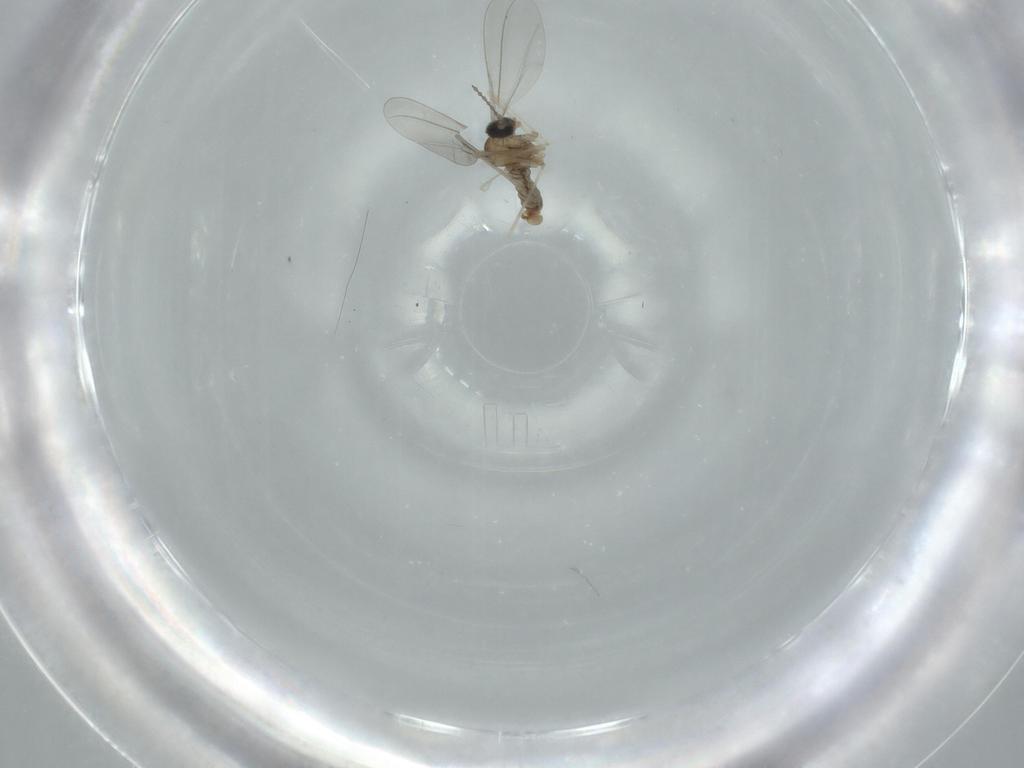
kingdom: Animalia
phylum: Arthropoda
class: Insecta
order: Diptera
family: Cecidomyiidae
